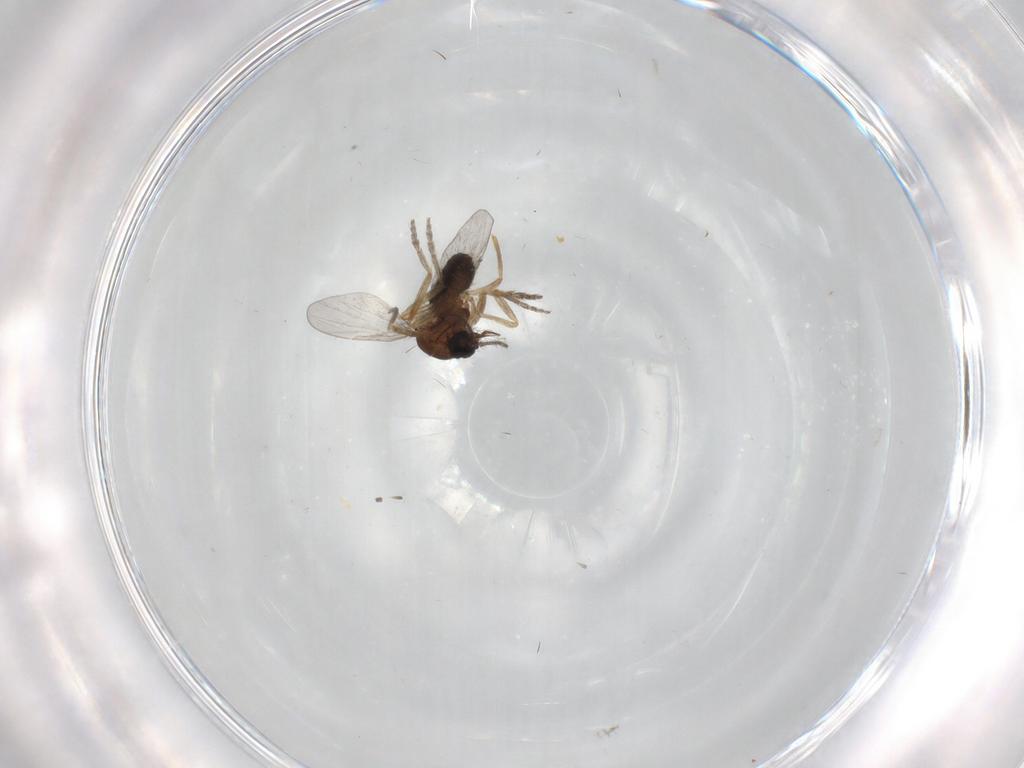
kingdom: Animalia
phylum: Arthropoda
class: Insecta
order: Diptera
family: Ceratopogonidae
